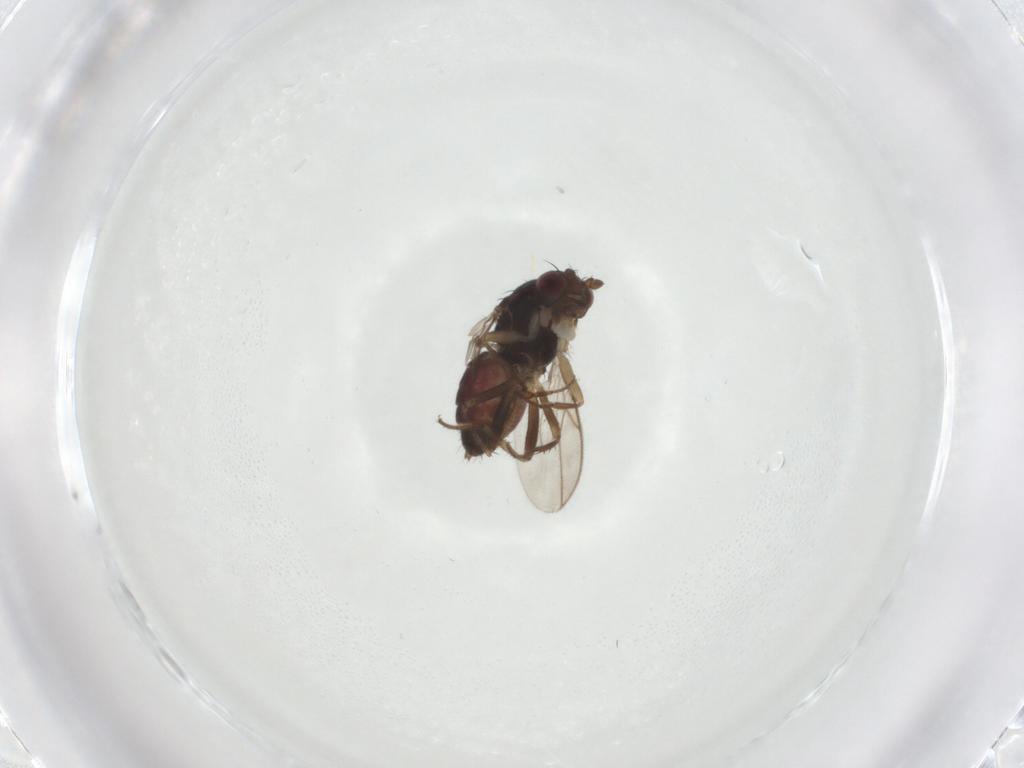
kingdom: Animalia
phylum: Arthropoda
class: Insecta
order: Diptera
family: Sphaeroceridae
